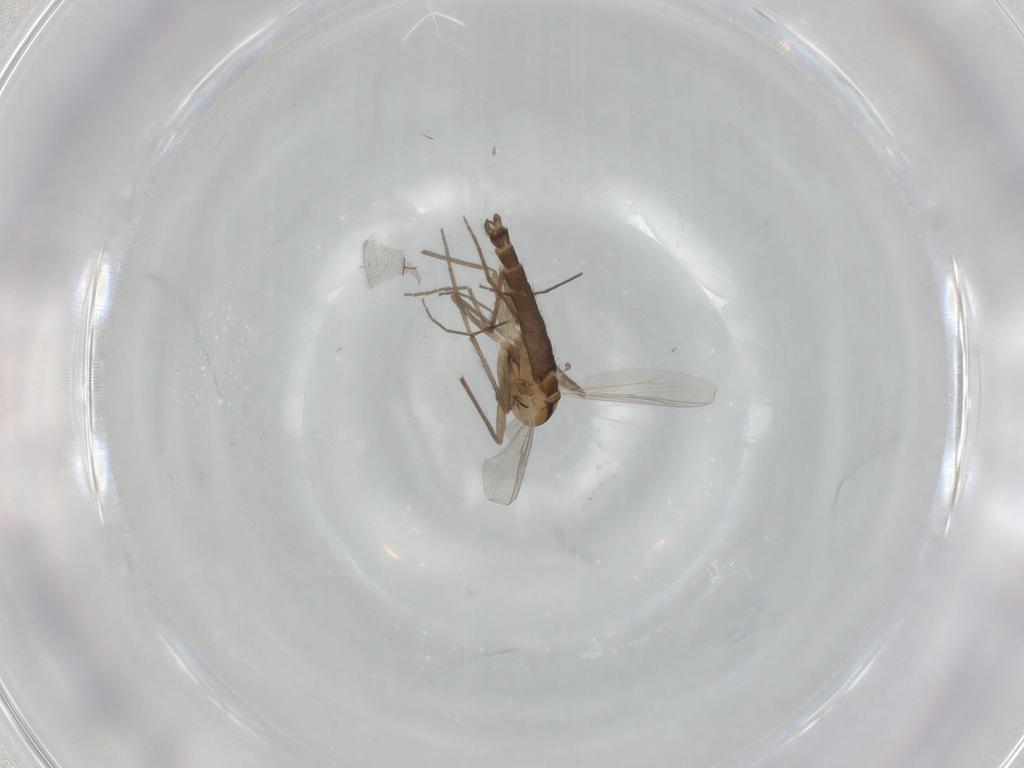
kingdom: Animalia
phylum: Arthropoda
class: Insecta
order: Diptera
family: Chironomidae
